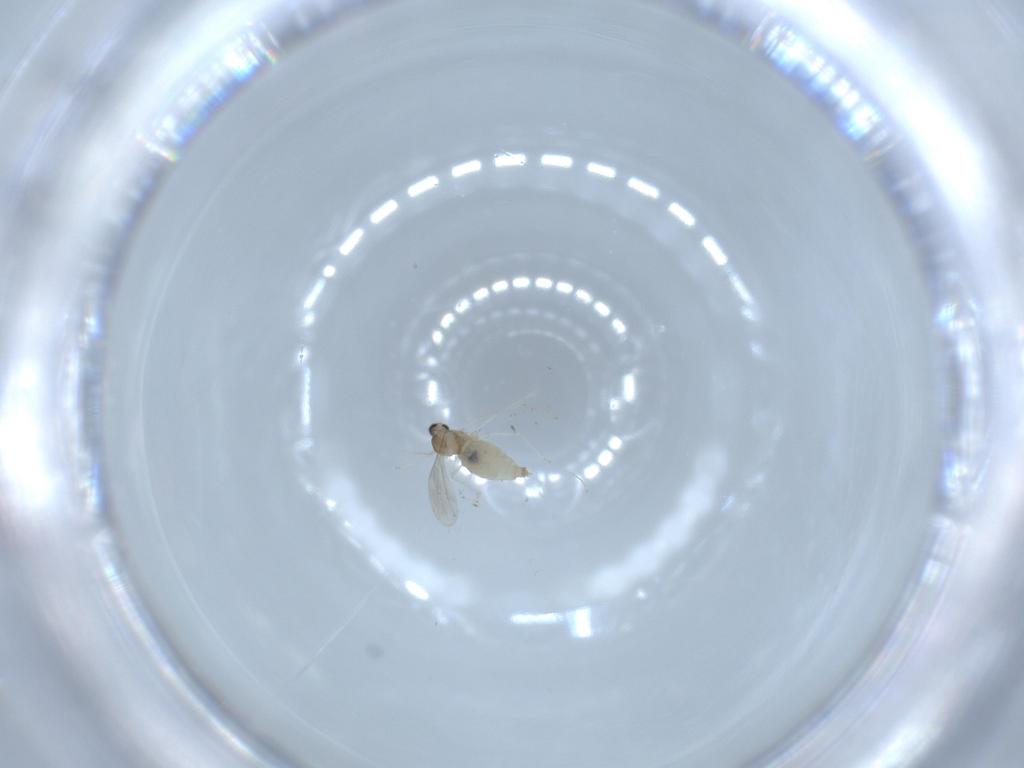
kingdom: Animalia
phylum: Arthropoda
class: Insecta
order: Diptera
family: Cecidomyiidae
